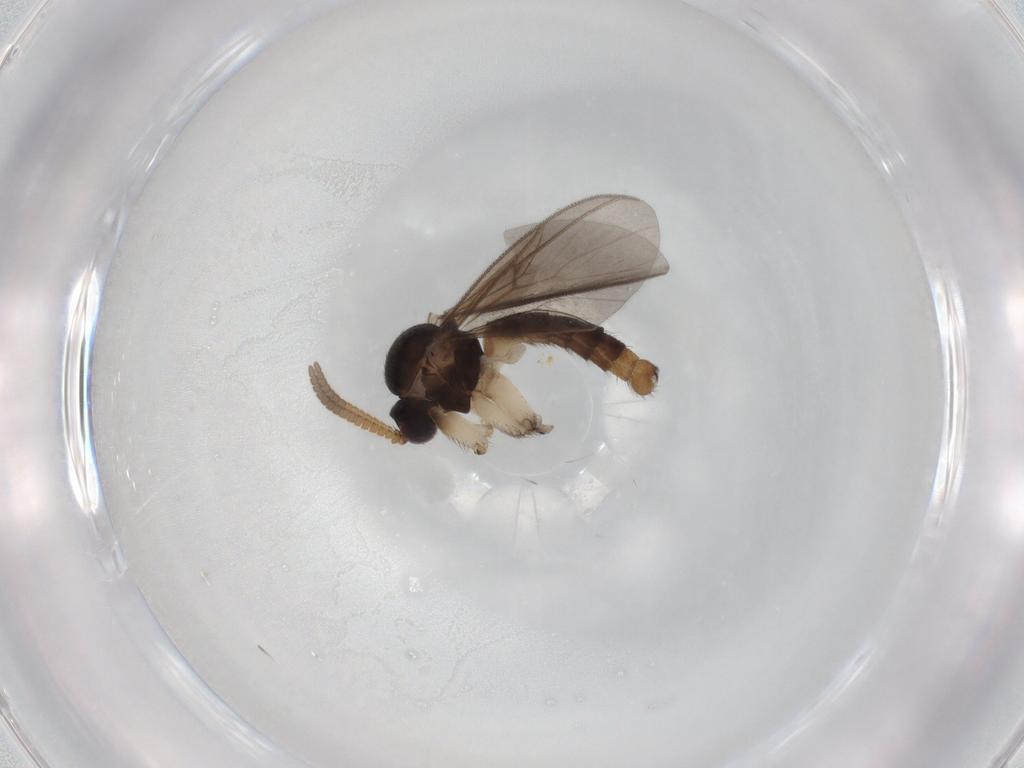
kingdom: Animalia
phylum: Arthropoda
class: Insecta
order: Diptera
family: Mycetophilidae
